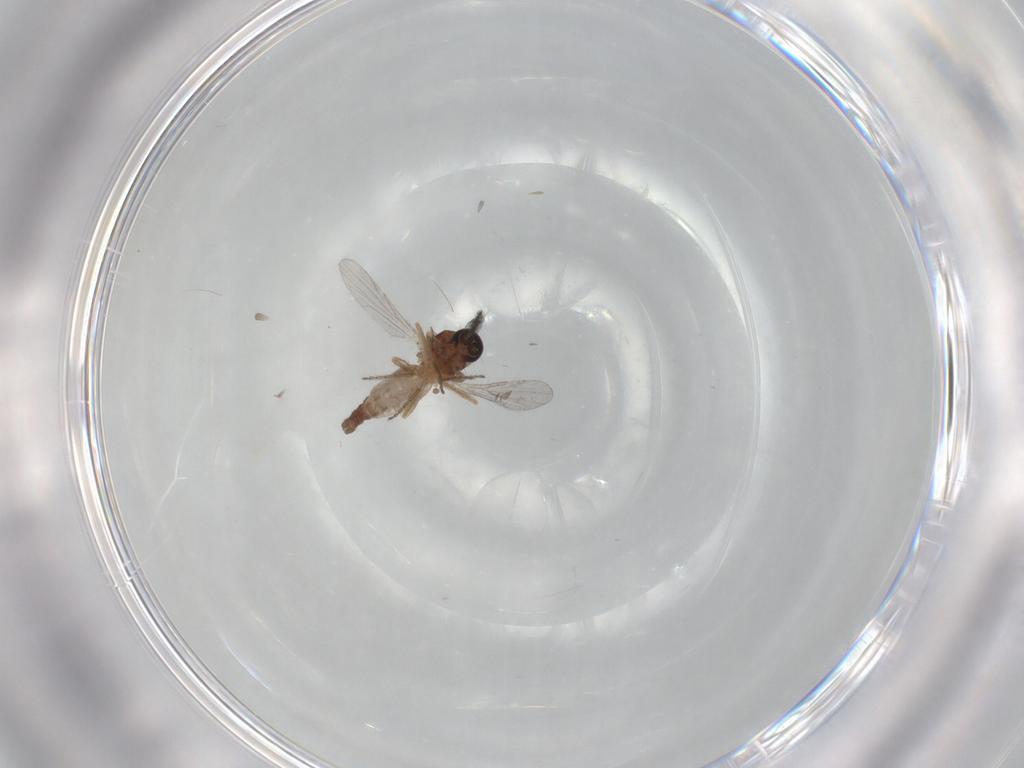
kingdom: Animalia
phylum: Arthropoda
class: Insecta
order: Diptera
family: Ceratopogonidae
